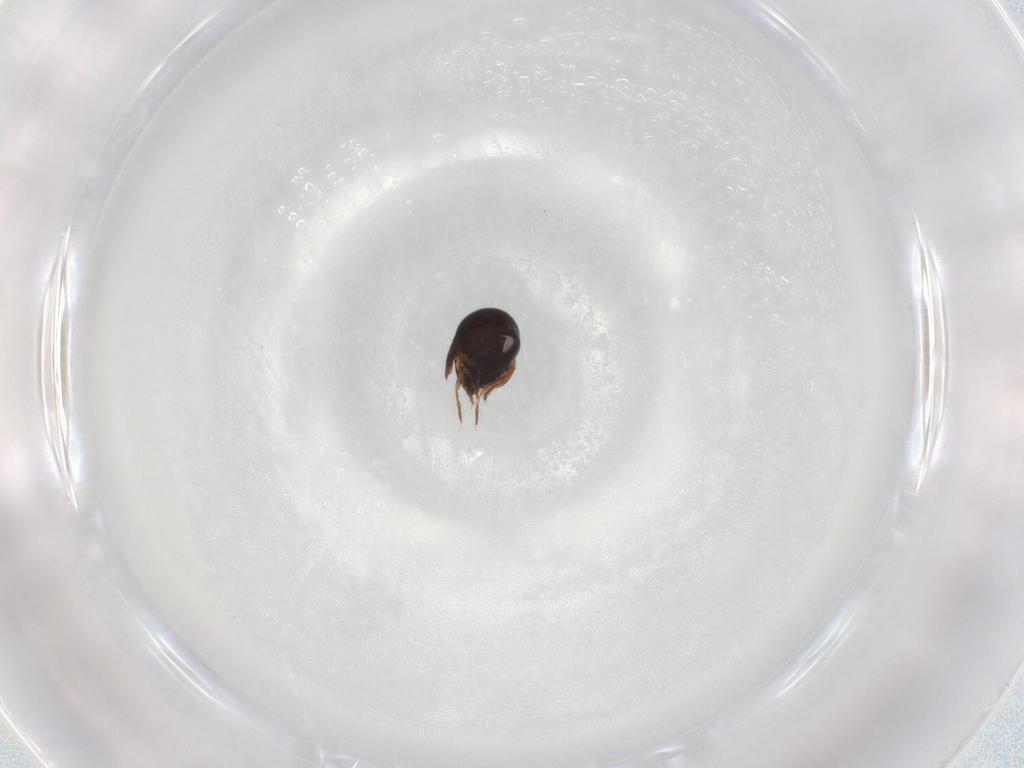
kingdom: Animalia
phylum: Arthropoda
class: Arachnida
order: Sarcoptiformes
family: Ceratozetidae
